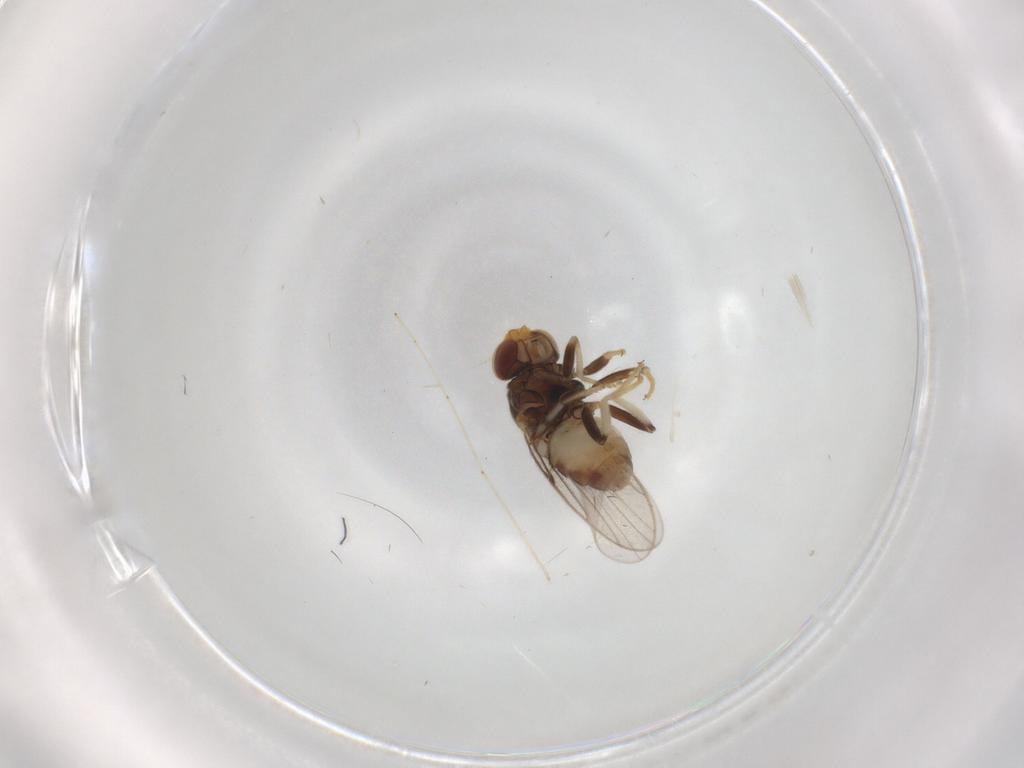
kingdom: Animalia
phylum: Arthropoda
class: Insecta
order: Diptera
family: Chloropidae
